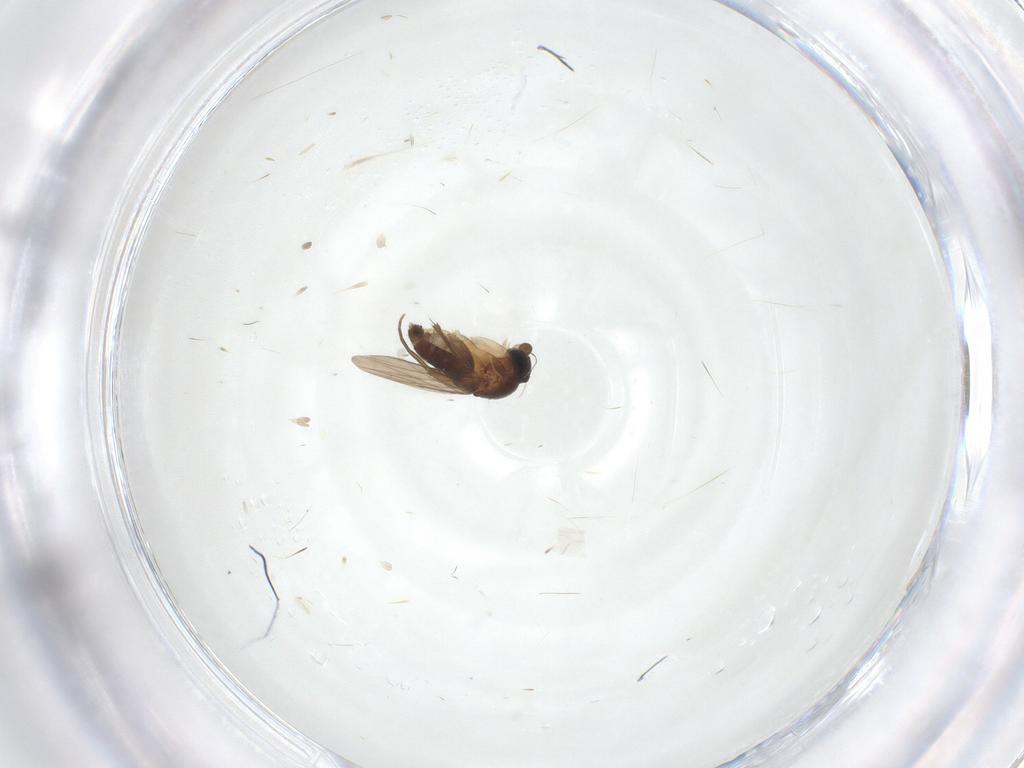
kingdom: Animalia
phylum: Arthropoda
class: Insecta
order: Diptera
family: Phoridae
